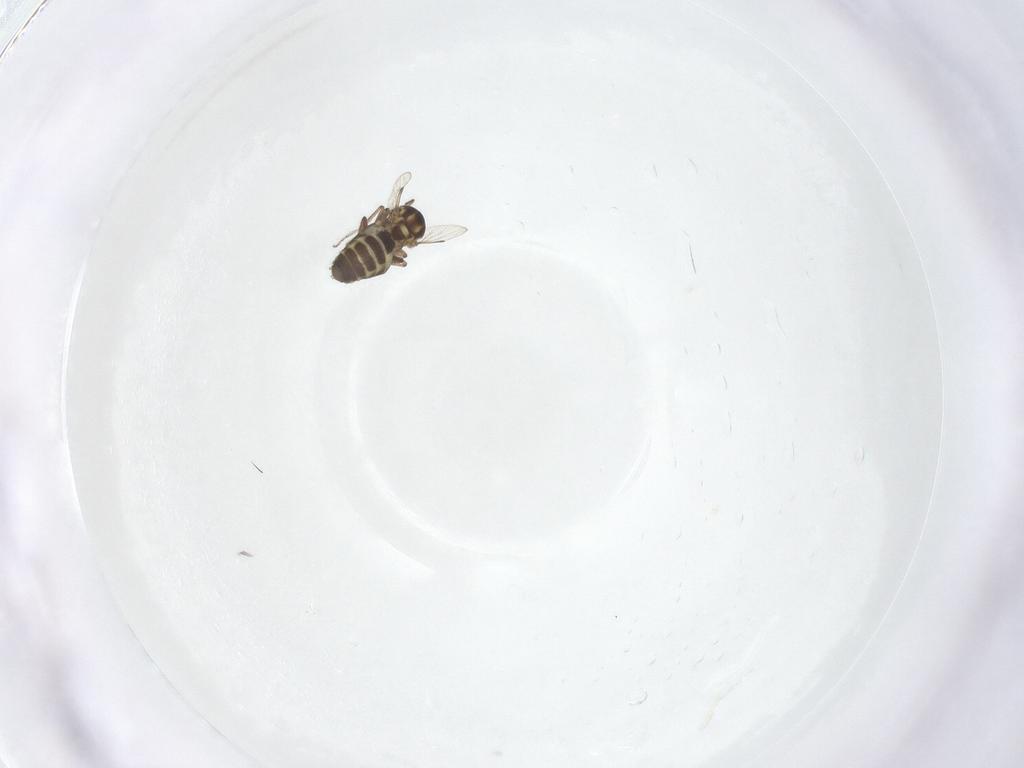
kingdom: Animalia
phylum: Arthropoda
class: Insecta
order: Diptera
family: Ceratopogonidae
